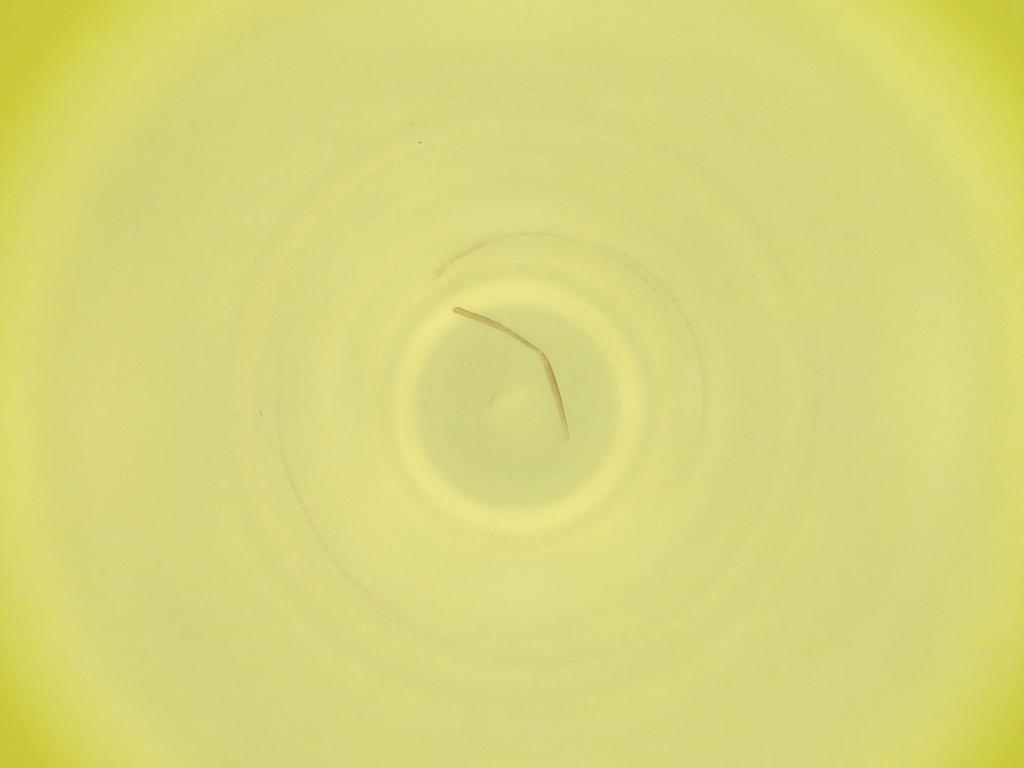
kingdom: Animalia
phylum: Arthropoda
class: Insecta
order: Diptera
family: Cecidomyiidae
